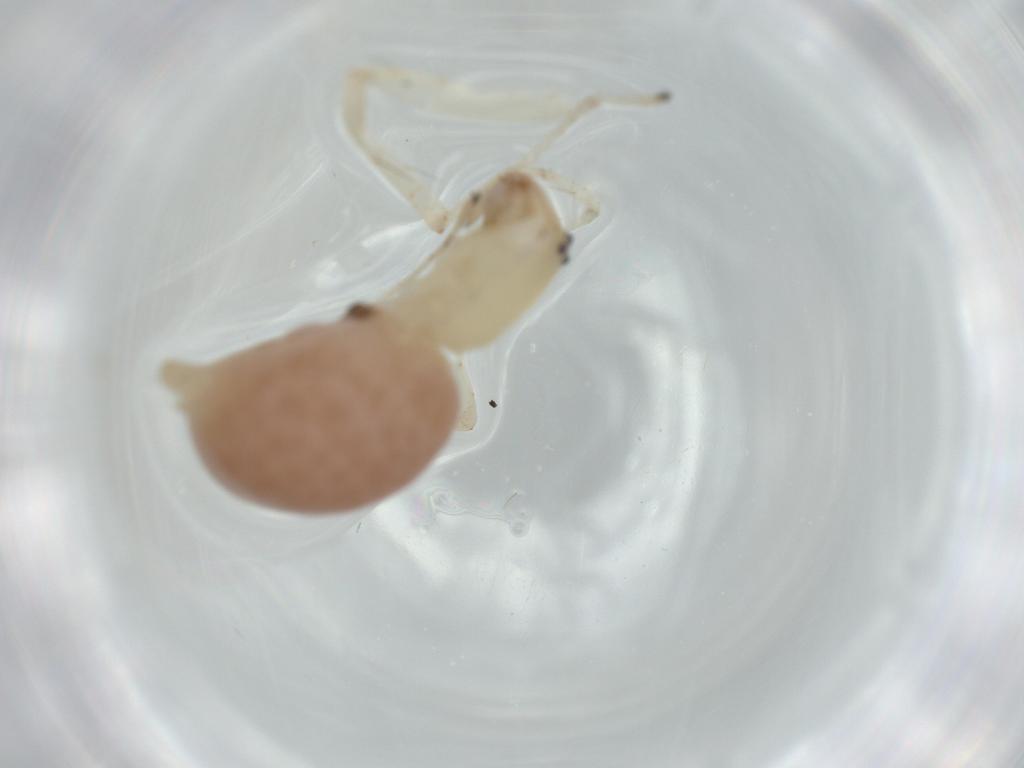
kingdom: Animalia
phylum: Arthropoda
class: Arachnida
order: Araneae
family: Anyphaenidae
